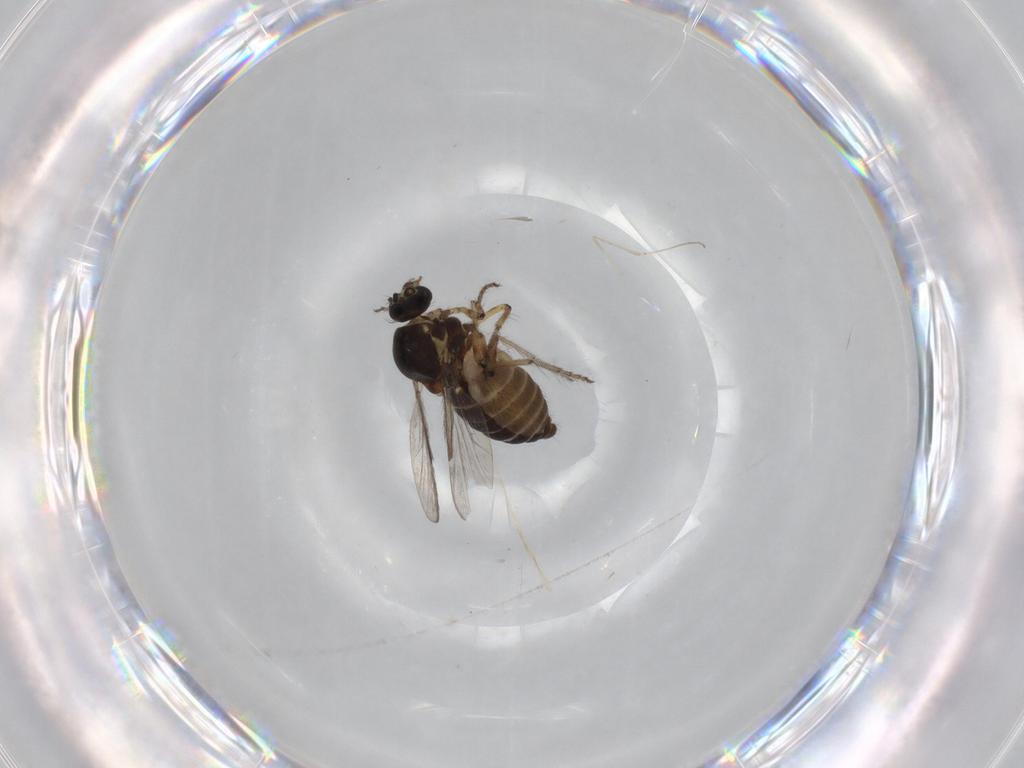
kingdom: Animalia
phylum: Arthropoda
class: Insecta
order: Diptera
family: Ceratopogonidae
